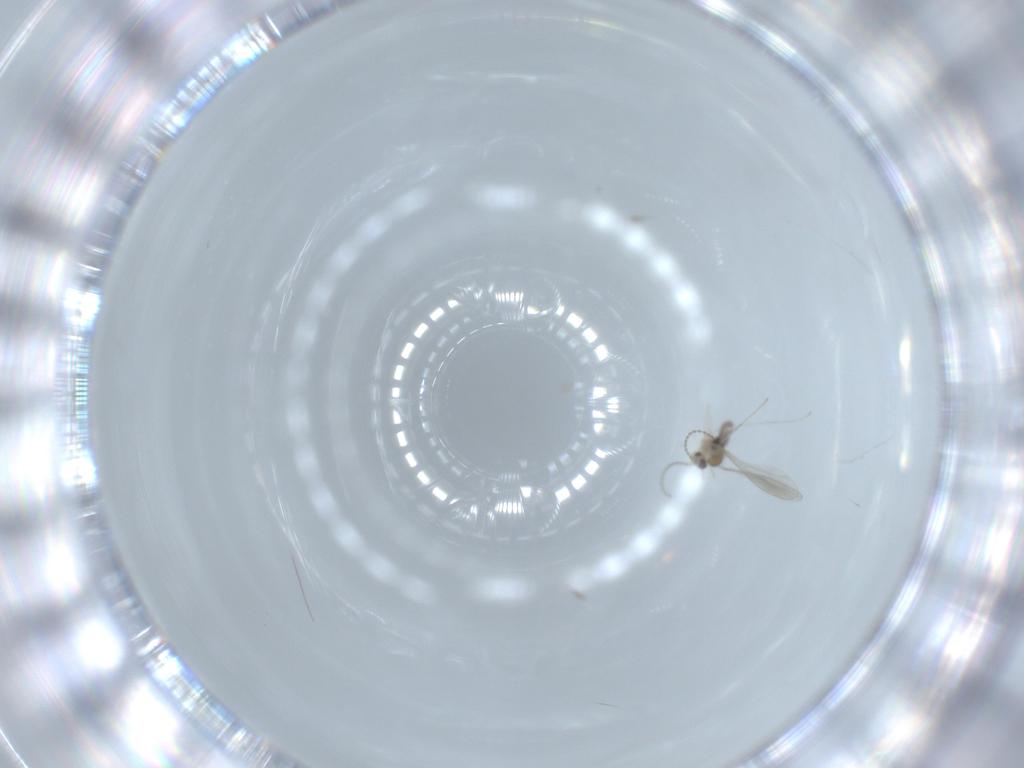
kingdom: Animalia
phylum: Arthropoda
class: Insecta
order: Diptera
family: Cecidomyiidae
